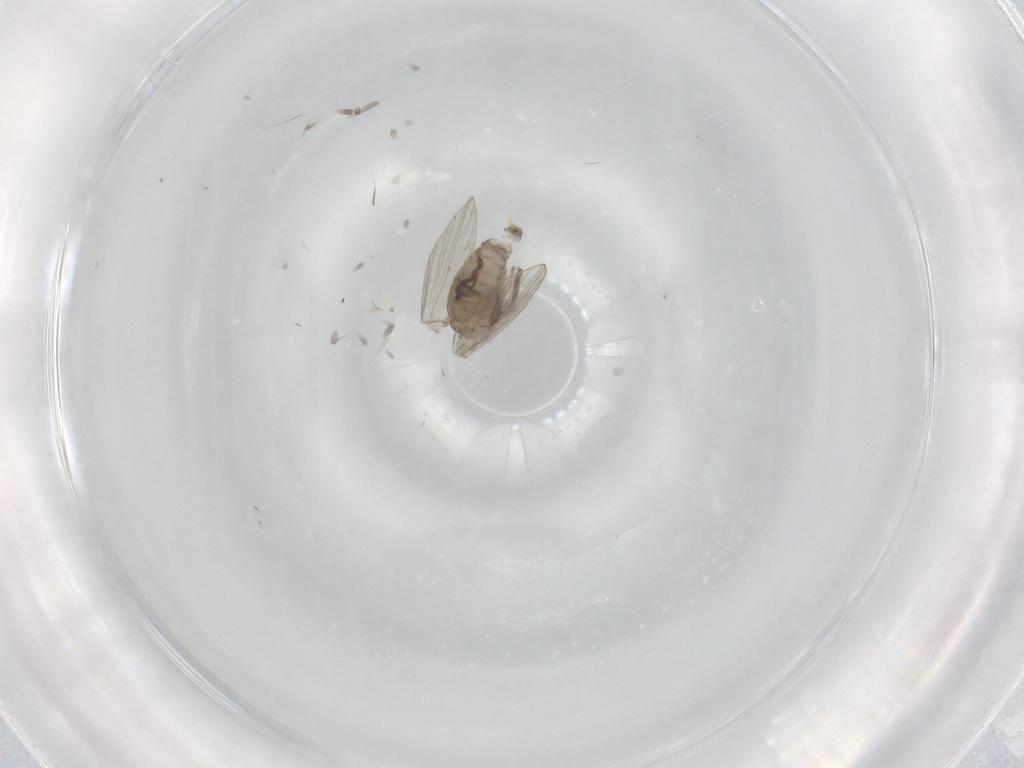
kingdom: Animalia
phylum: Arthropoda
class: Insecta
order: Diptera
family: Psychodidae
